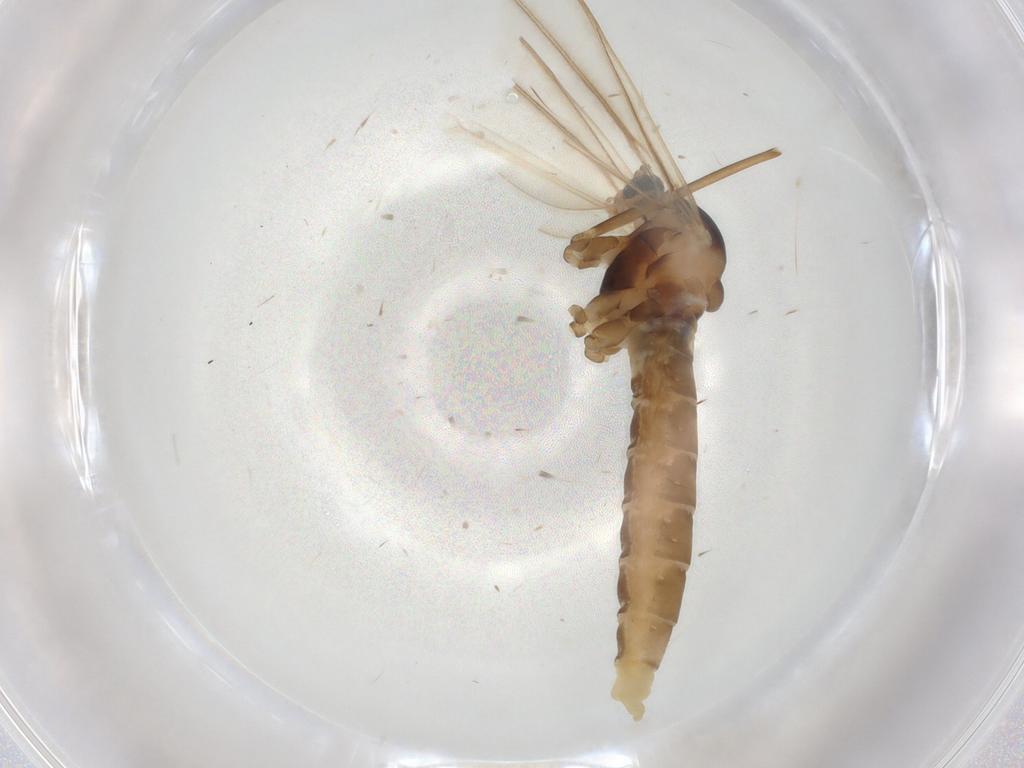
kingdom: Animalia
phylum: Arthropoda
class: Insecta
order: Diptera
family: Cecidomyiidae
